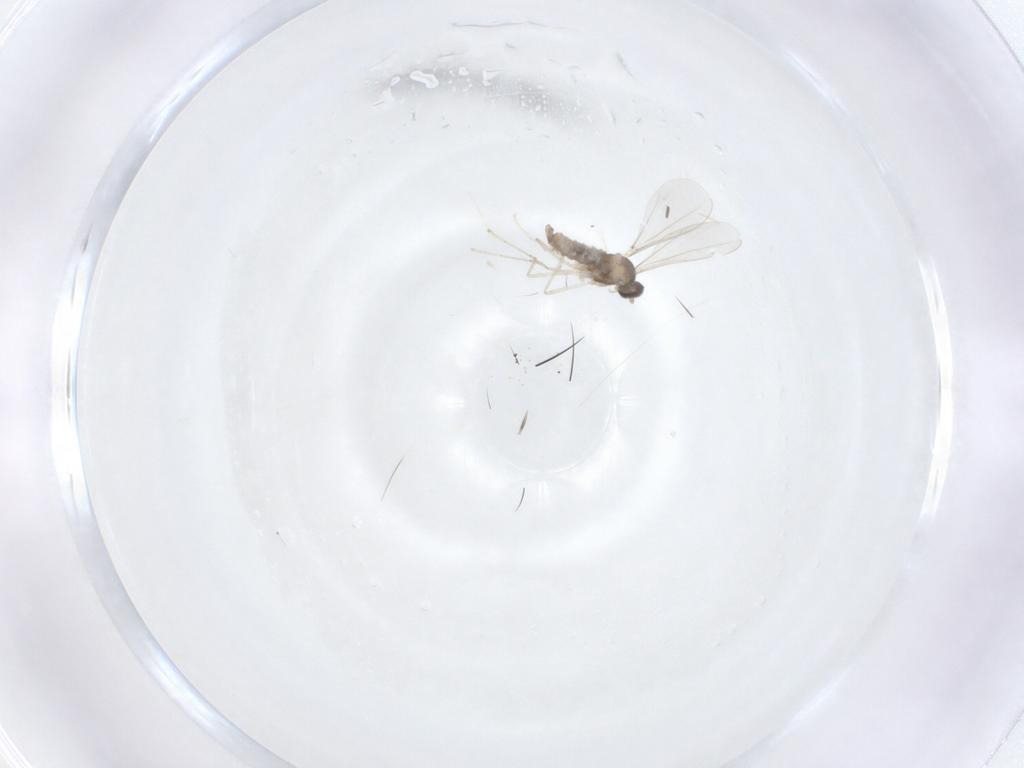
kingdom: Animalia
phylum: Arthropoda
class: Insecta
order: Diptera
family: Cecidomyiidae
